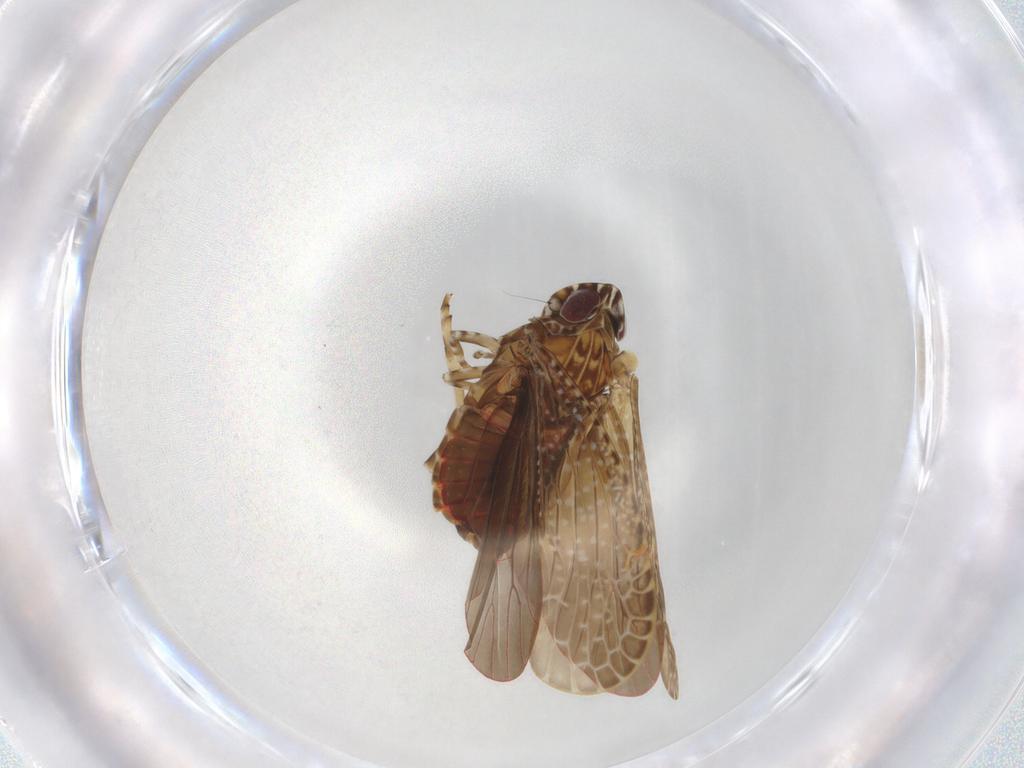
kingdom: Animalia
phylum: Arthropoda
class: Insecta
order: Hemiptera
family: Achilidae
